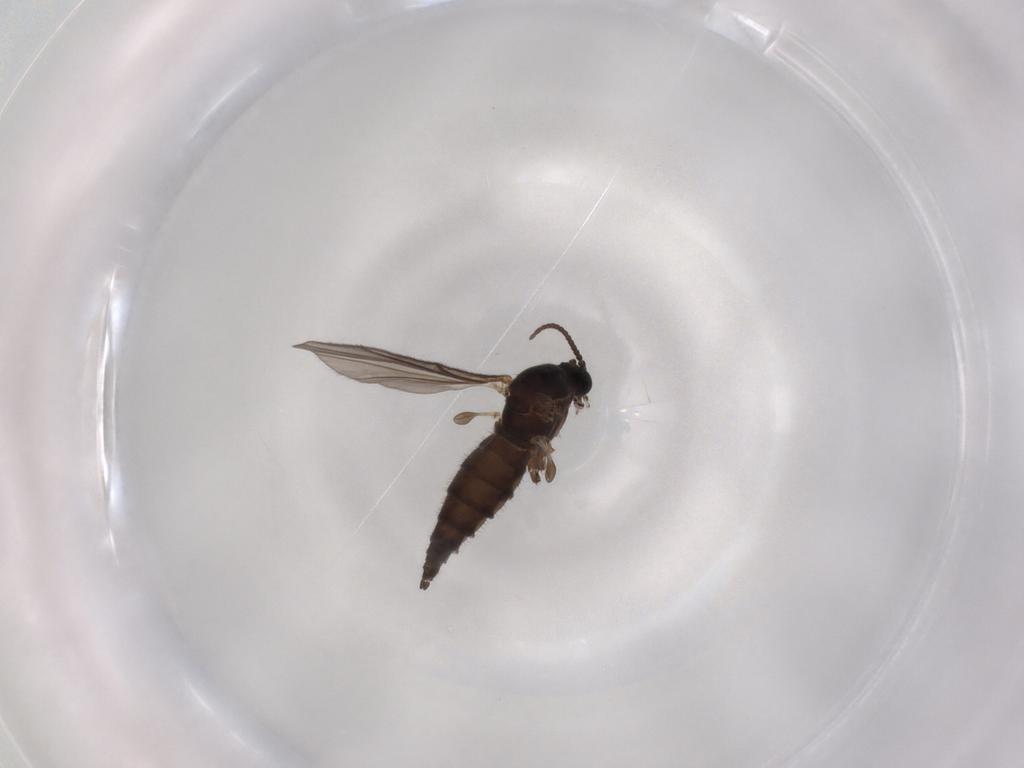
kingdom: Animalia
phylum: Arthropoda
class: Insecta
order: Diptera
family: Sciaridae
